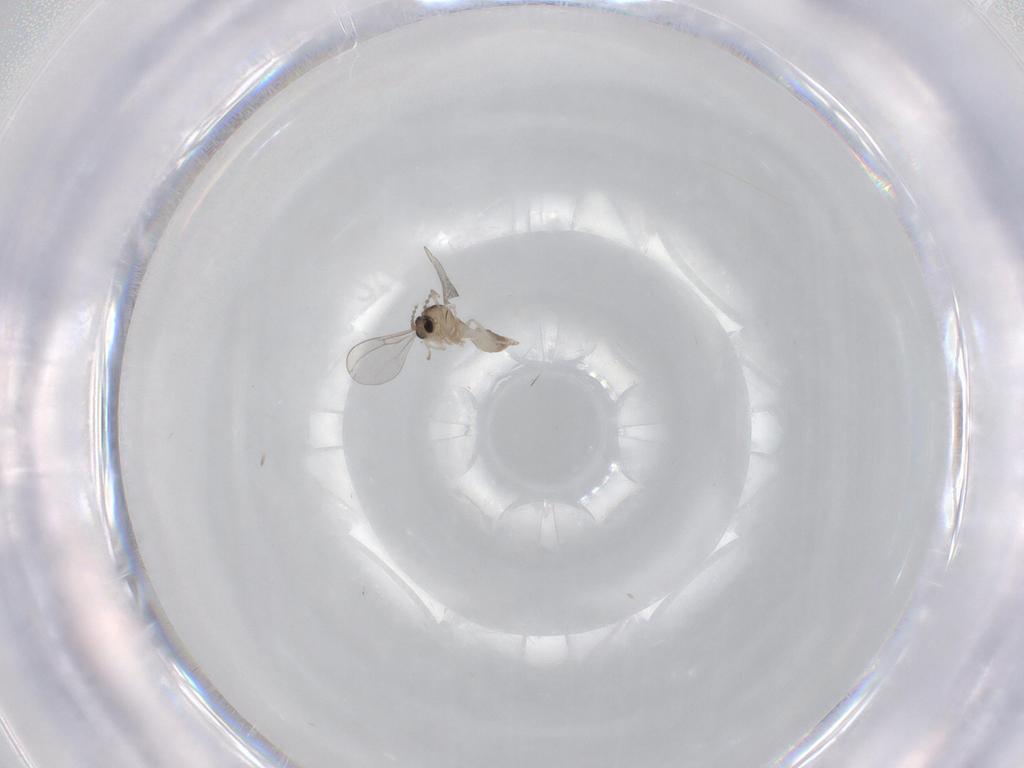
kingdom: Animalia
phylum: Arthropoda
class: Insecta
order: Diptera
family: Cecidomyiidae
